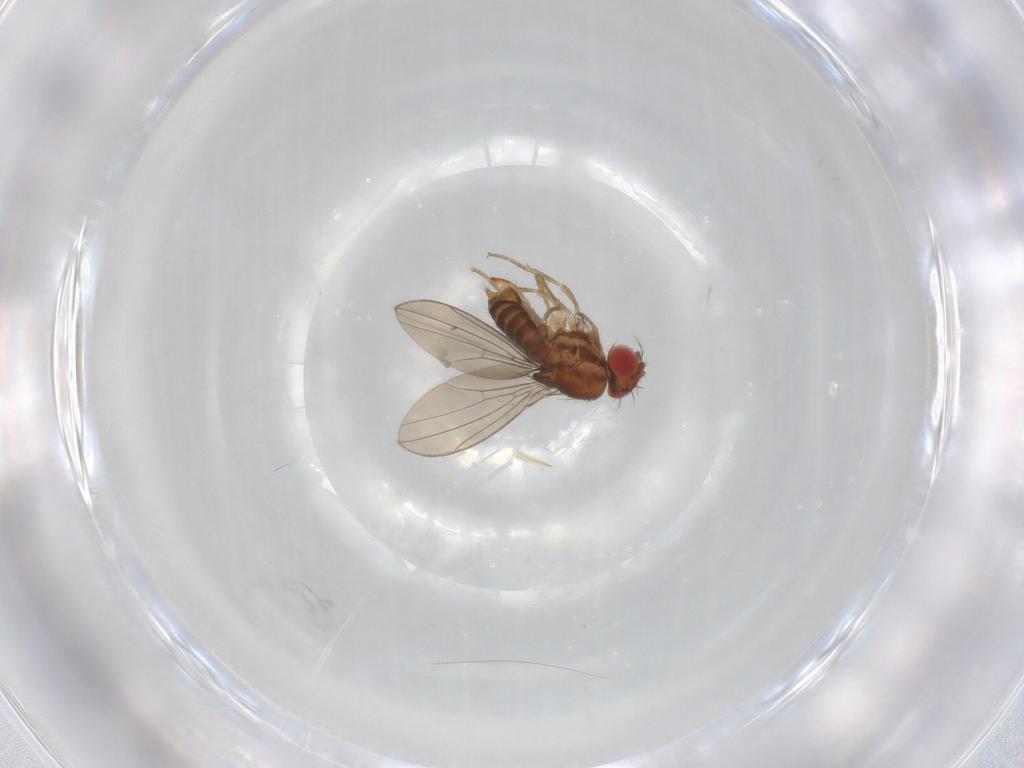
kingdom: Animalia
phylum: Arthropoda
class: Insecta
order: Diptera
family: Drosophilidae
